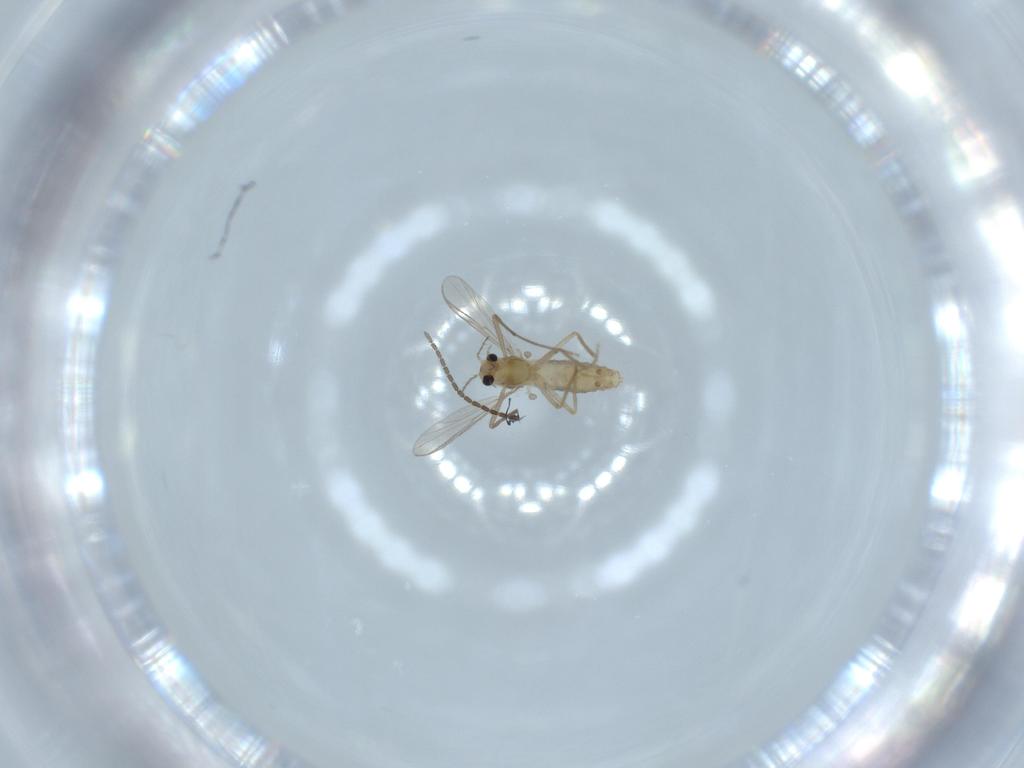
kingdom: Animalia
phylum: Arthropoda
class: Insecta
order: Diptera
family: Chironomidae
